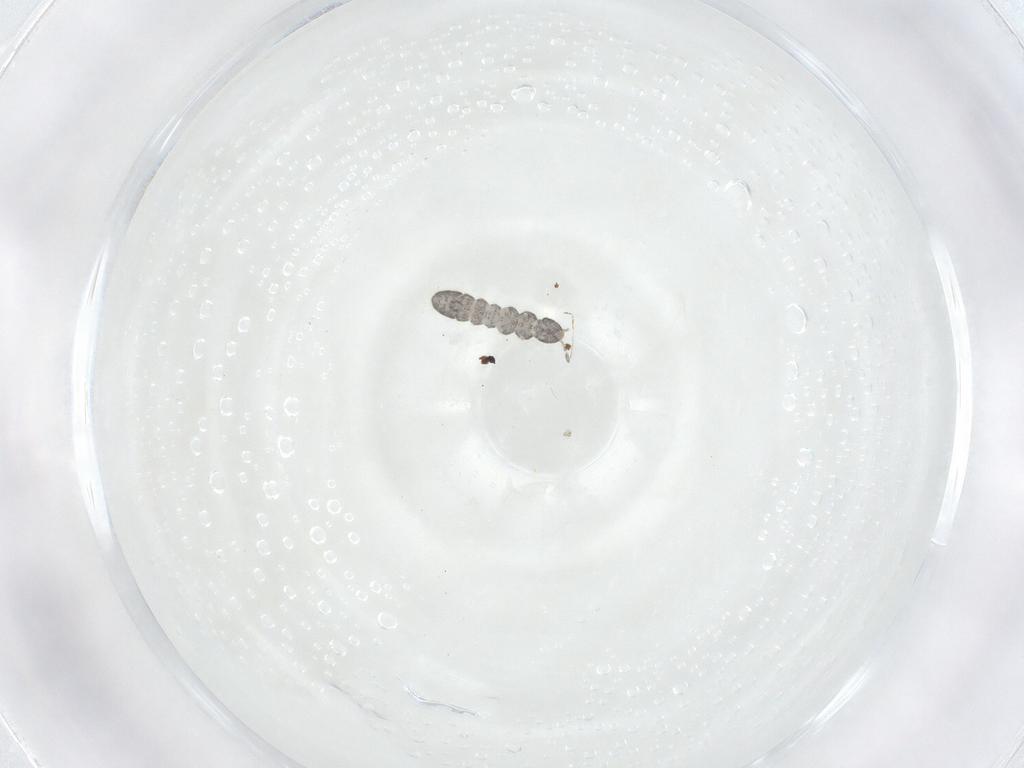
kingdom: Animalia
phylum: Arthropoda
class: Collembola
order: Entomobryomorpha
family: Isotomidae
